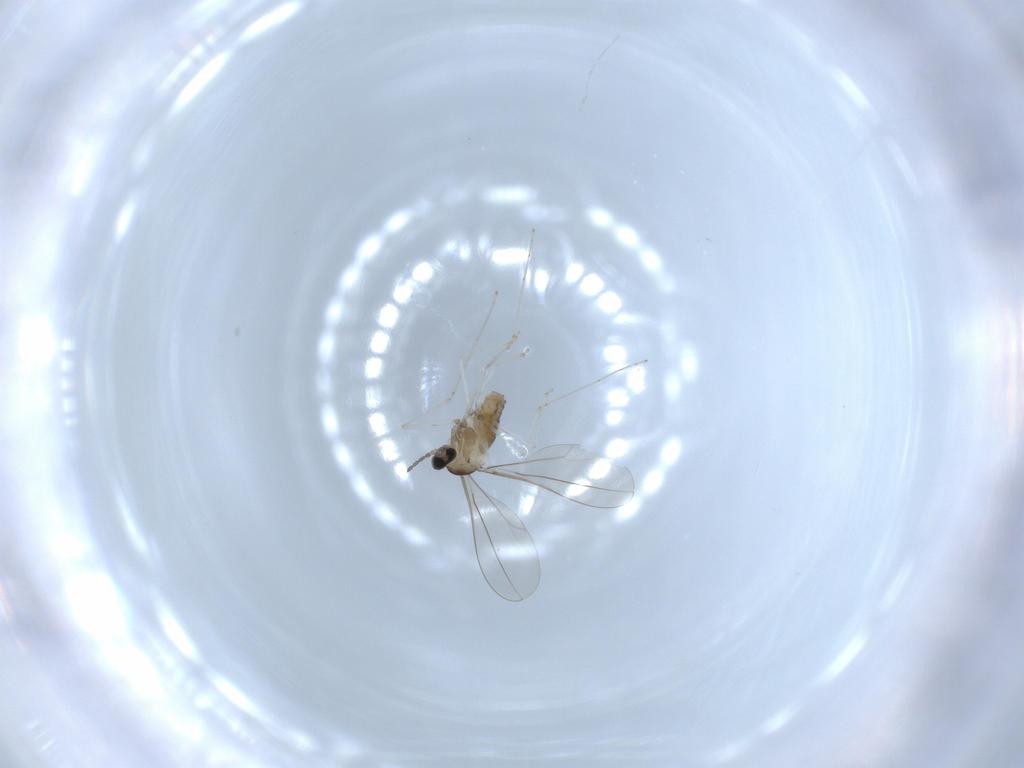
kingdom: Animalia
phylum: Arthropoda
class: Insecta
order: Diptera
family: Cecidomyiidae
